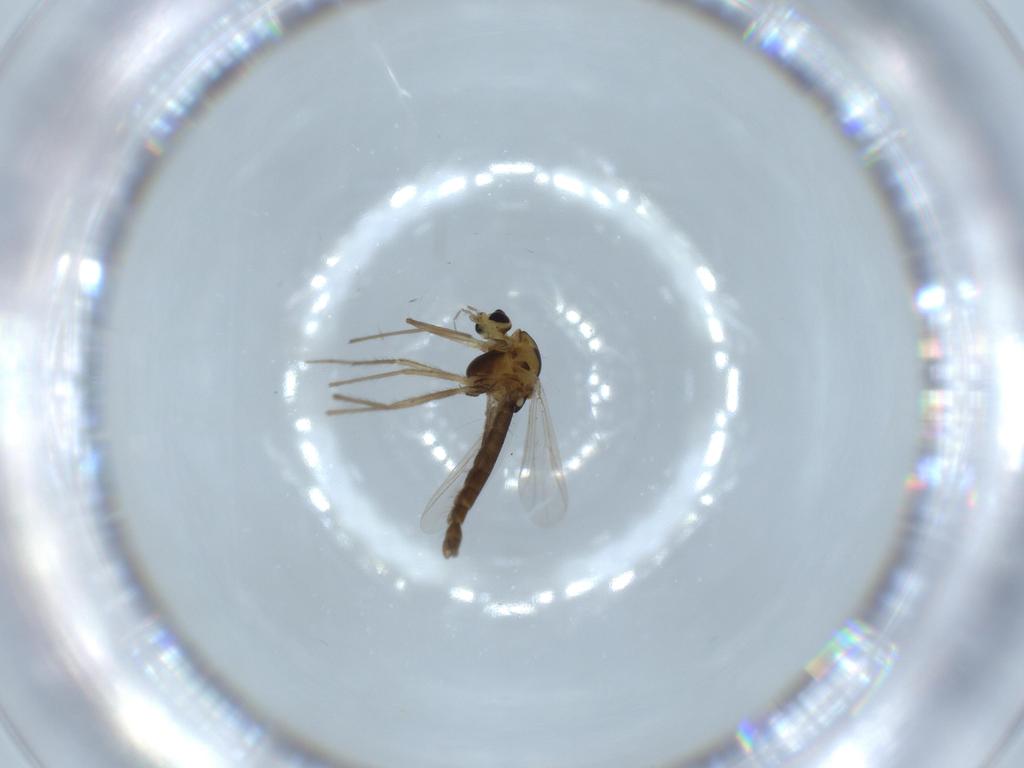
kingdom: Animalia
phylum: Arthropoda
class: Insecta
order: Diptera
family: Chironomidae
